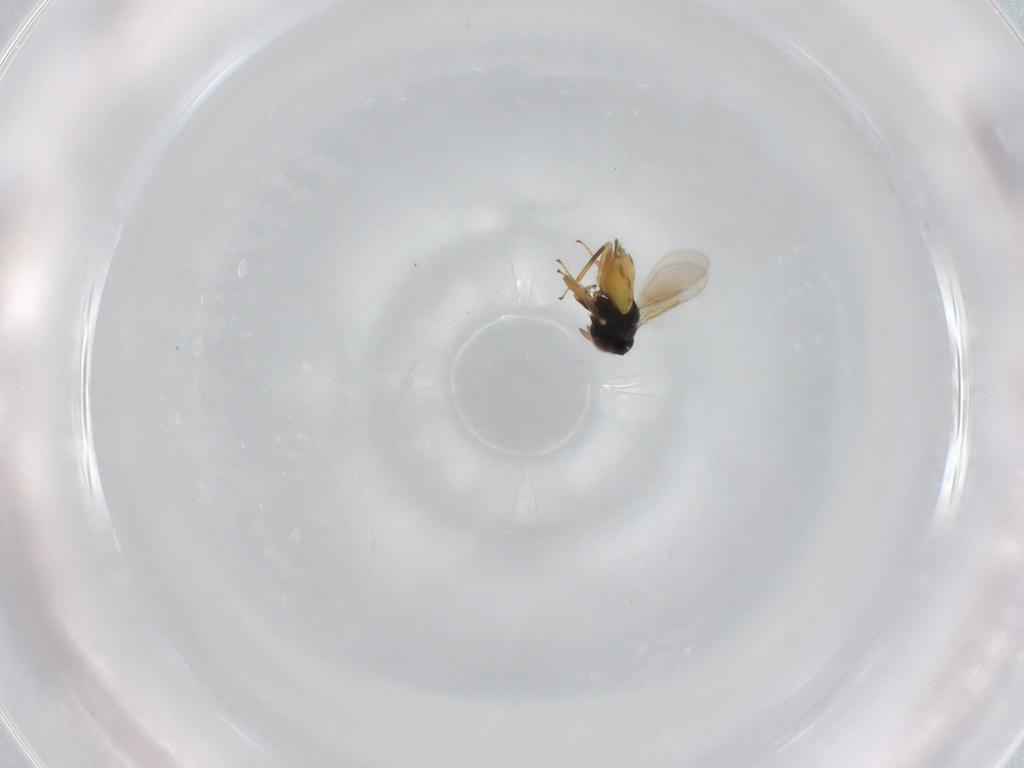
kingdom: Animalia
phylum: Arthropoda
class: Insecta
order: Hymenoptera
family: Aphelinidae
